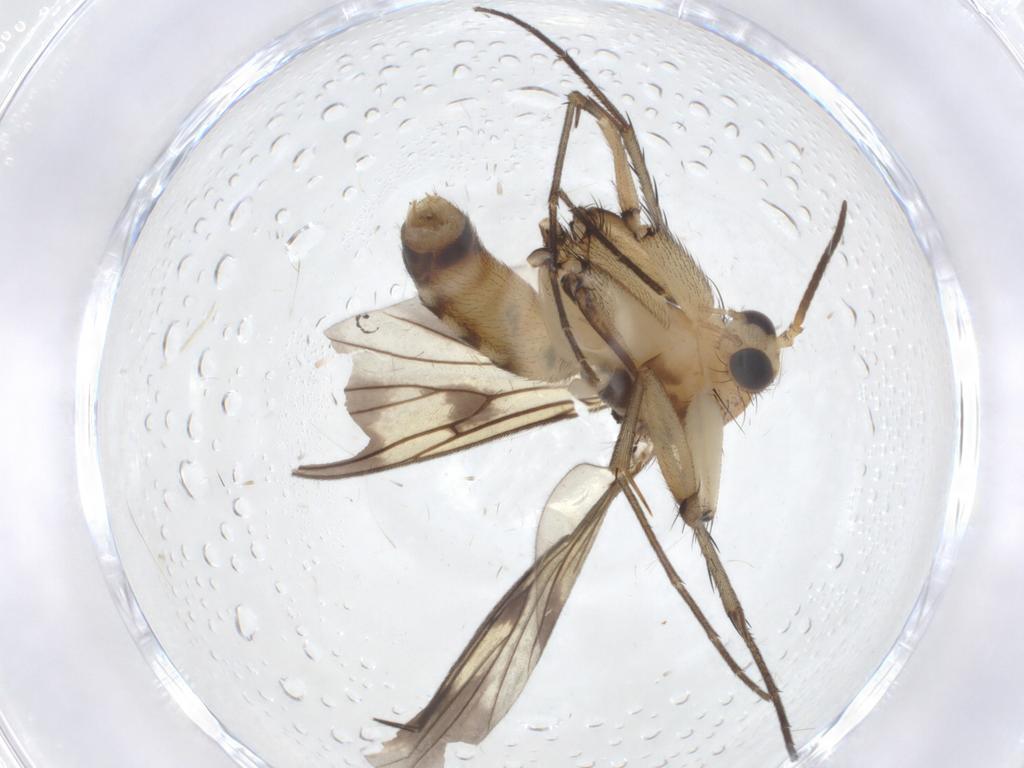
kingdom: Animalia
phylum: Arthropoda
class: Insecta
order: Diptera
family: Mycetophilidae
